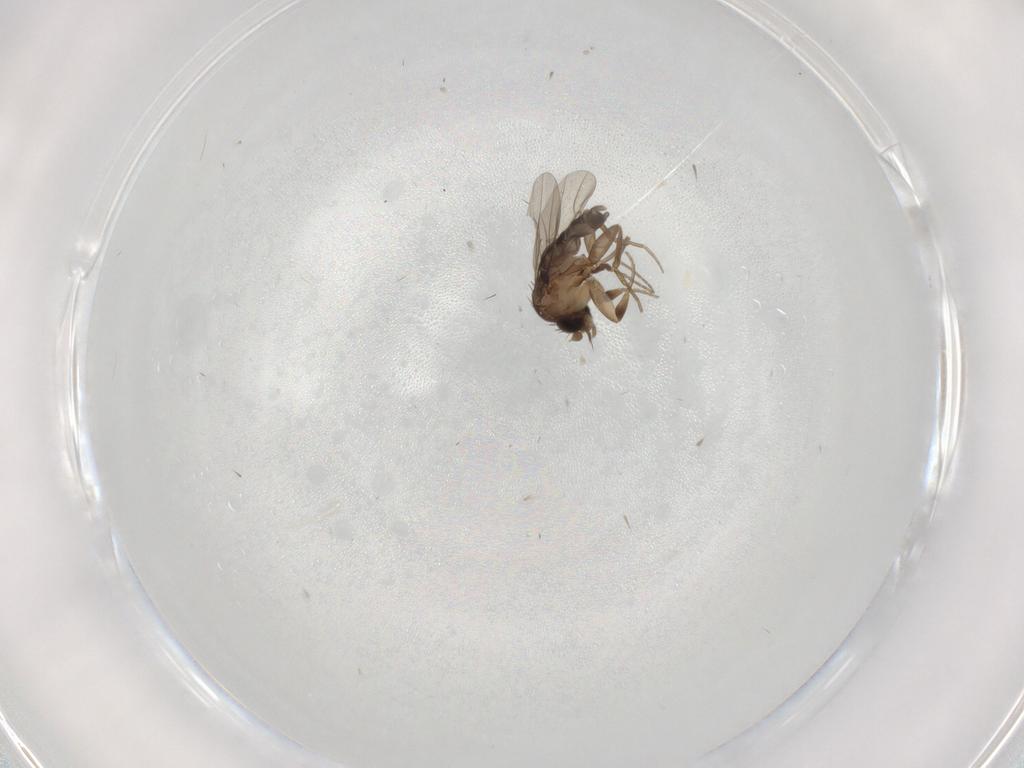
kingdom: Animalia
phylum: Arthropoda
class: Insecta
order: Diptera
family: Phoridae
